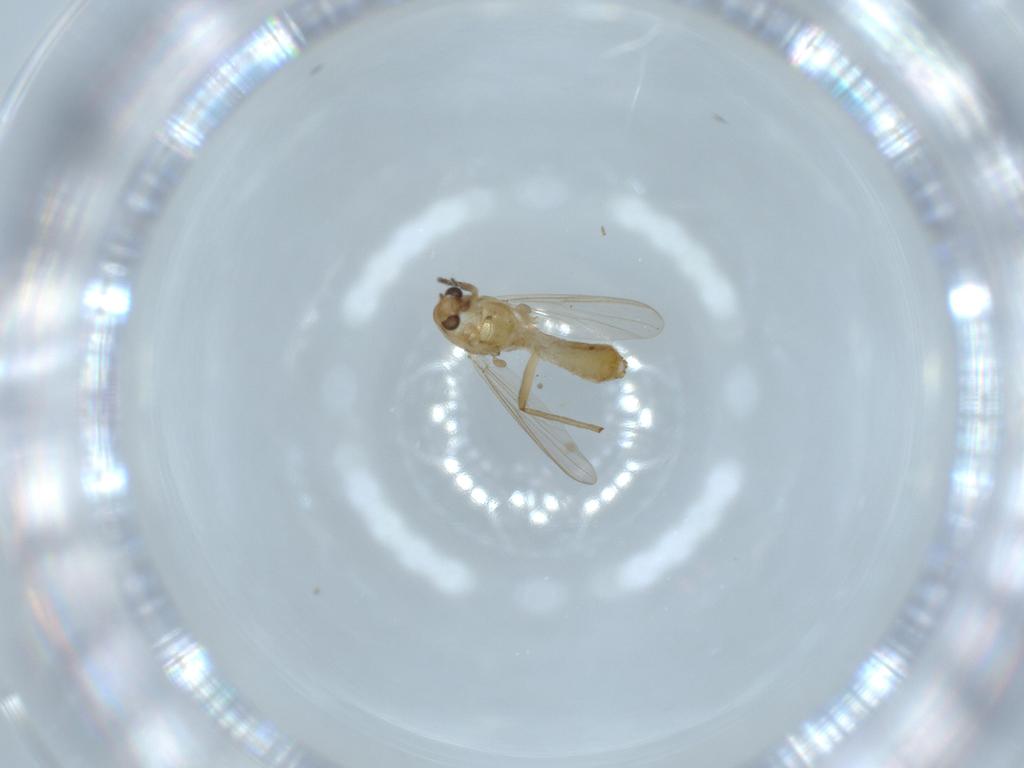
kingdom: Animalia
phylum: Arthropoda
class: Insecta
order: Diptera
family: Chironomidae
